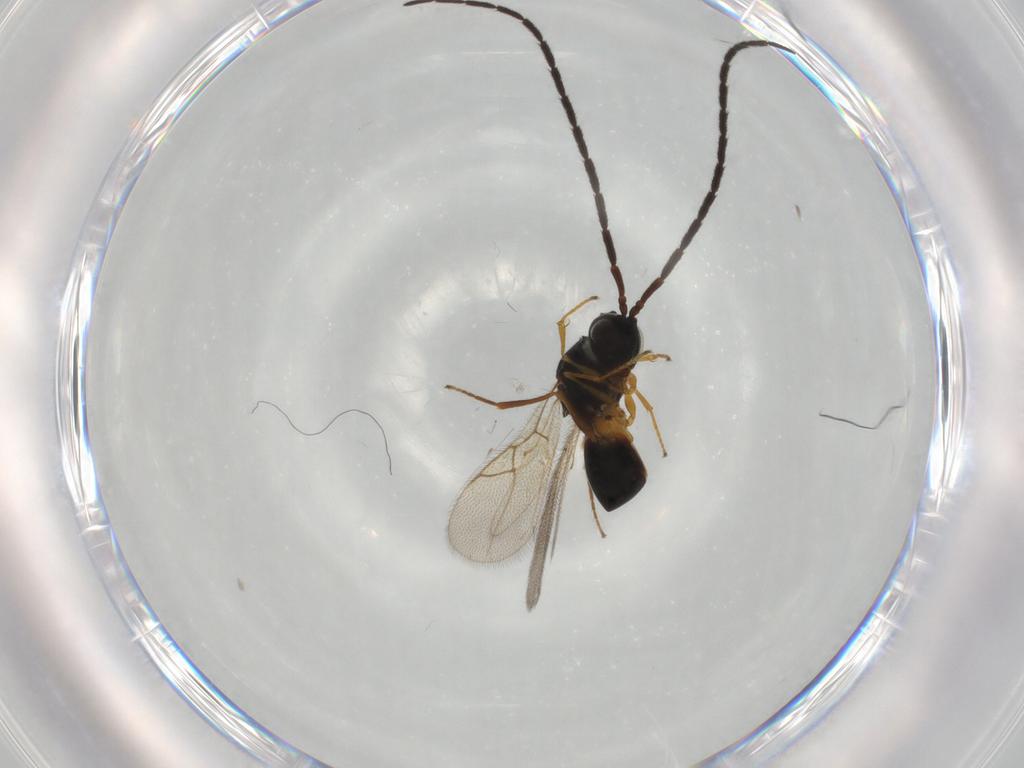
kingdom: Animalia
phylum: Arthropoda
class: Insecta
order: Hymenoptera
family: Figitidae
